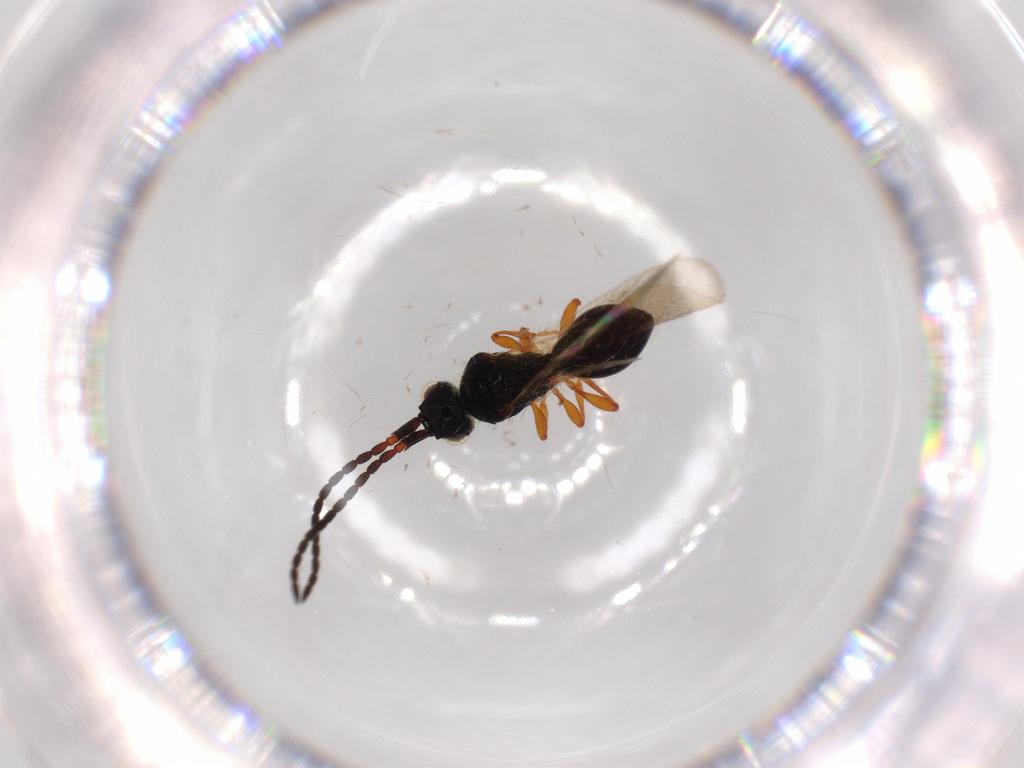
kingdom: Animalia
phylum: Arthropoda
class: Insecta
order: Hymenoptera
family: Diapriidae
